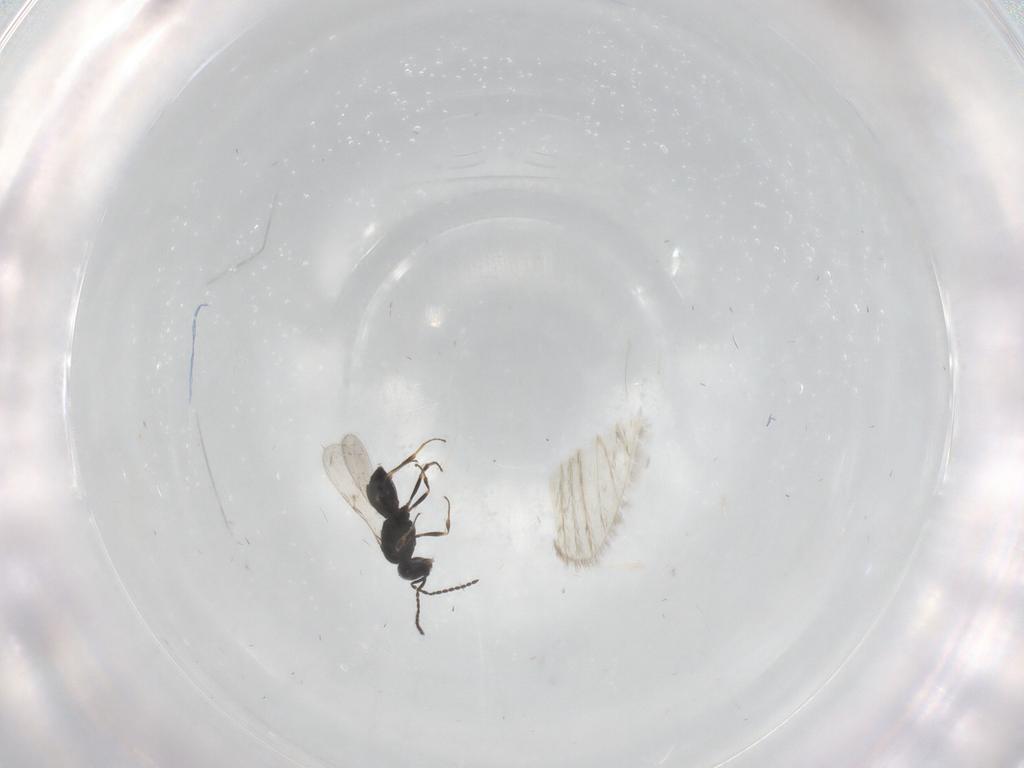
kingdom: Animalia
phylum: Arthropoda
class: Insecta
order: Hymenoptera
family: Scelionidae
